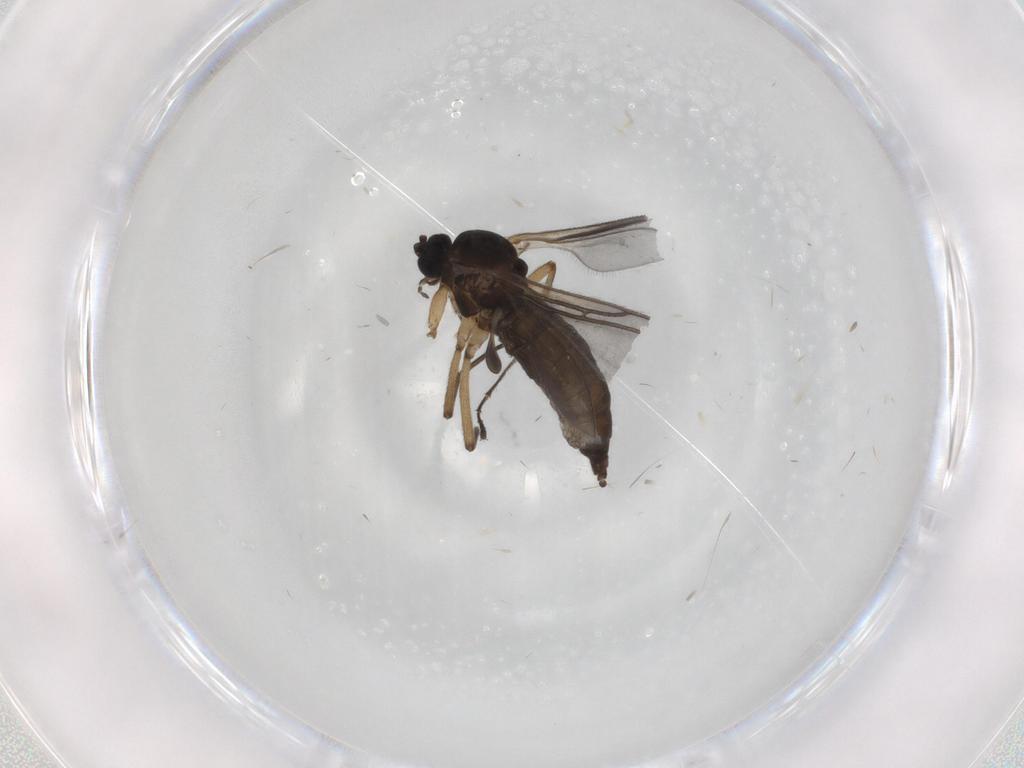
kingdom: Animalia
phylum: Arthropoda
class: Insecta
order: Diptera
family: Sciaridae
